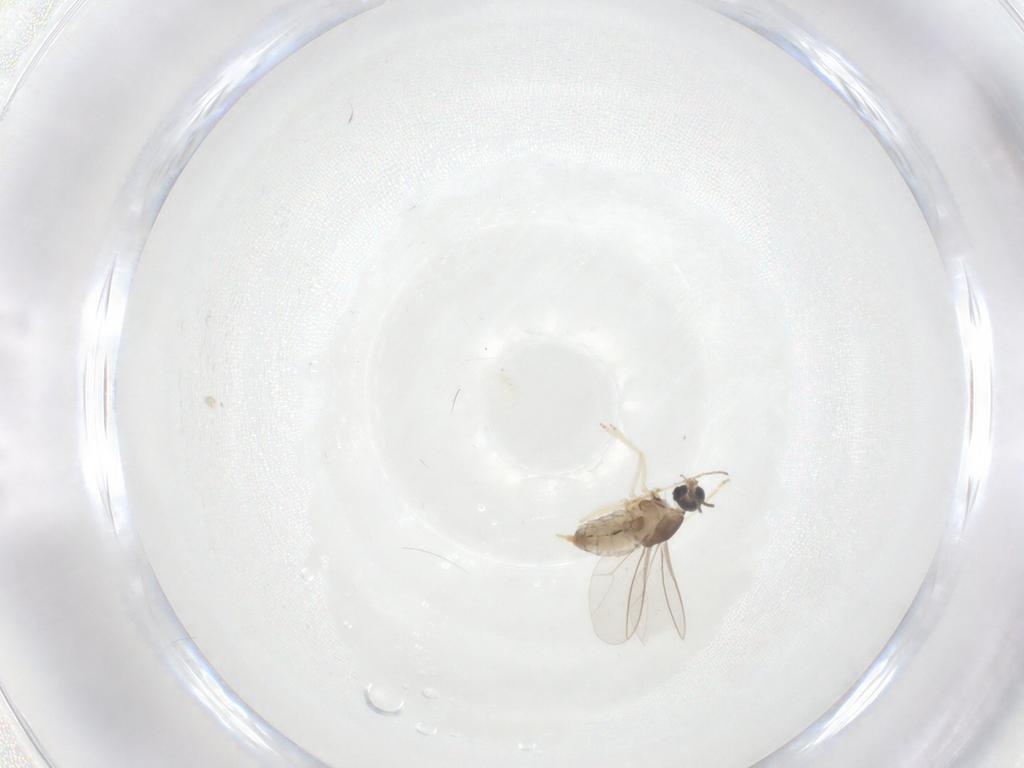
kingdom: Animalia
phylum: Arthropoda
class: Insecta
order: Diptera
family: Cecidomyiidae
